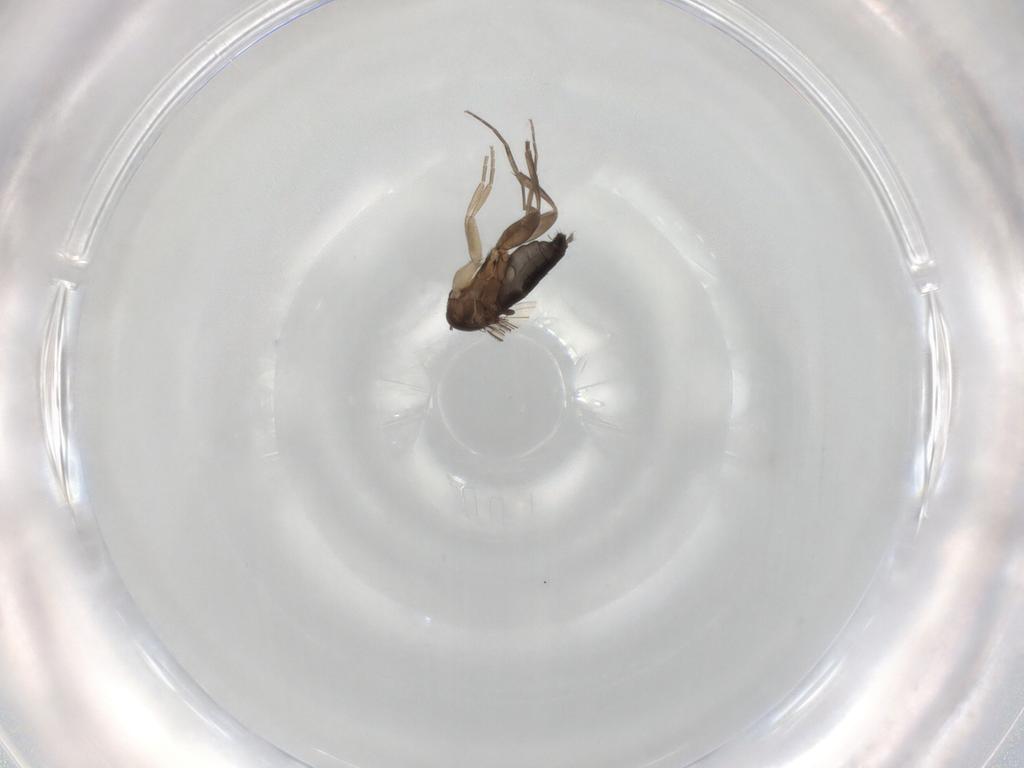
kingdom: Animalia
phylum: Arthropoda
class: Insecta
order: Diptera
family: Phoridae
